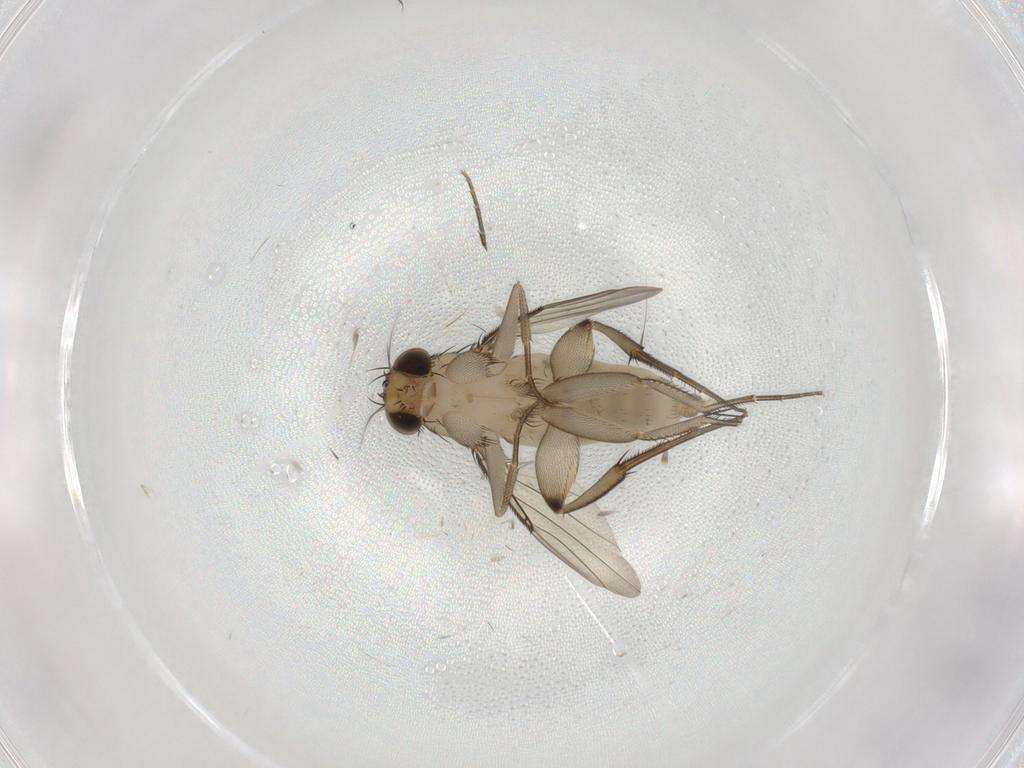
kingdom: Animalia
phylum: Arthropoda
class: Insecta
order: Diptera
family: Phoridae
